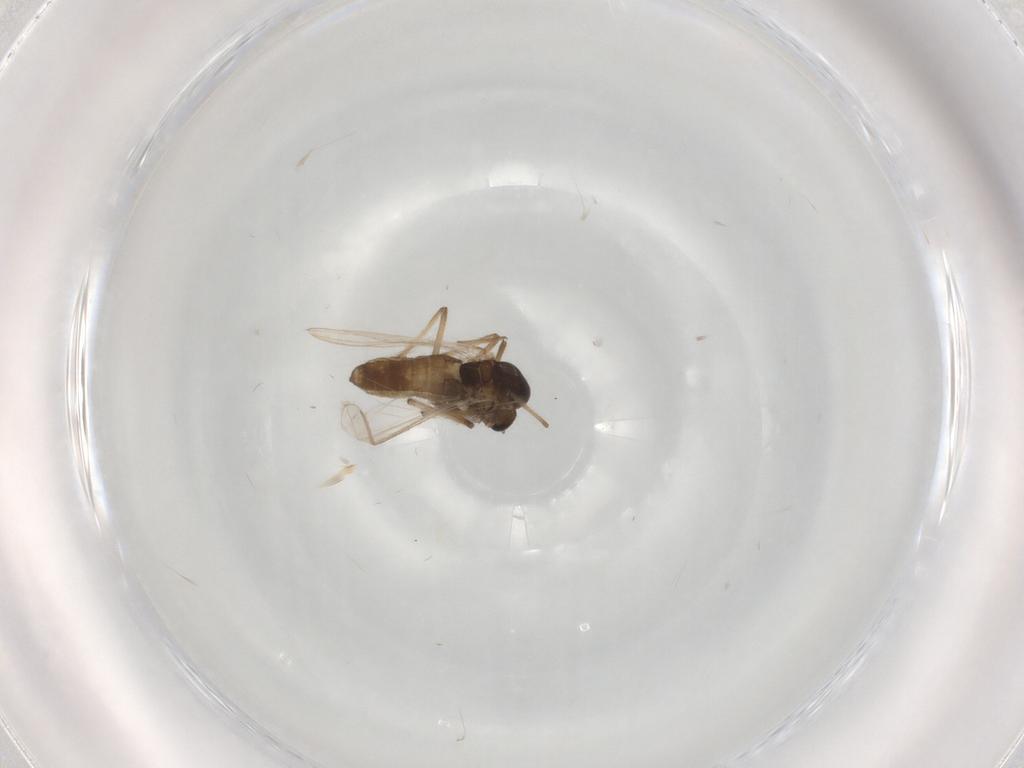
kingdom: Animalia
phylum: Arthropoda
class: Insecta
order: Diptera
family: Chironomidae
